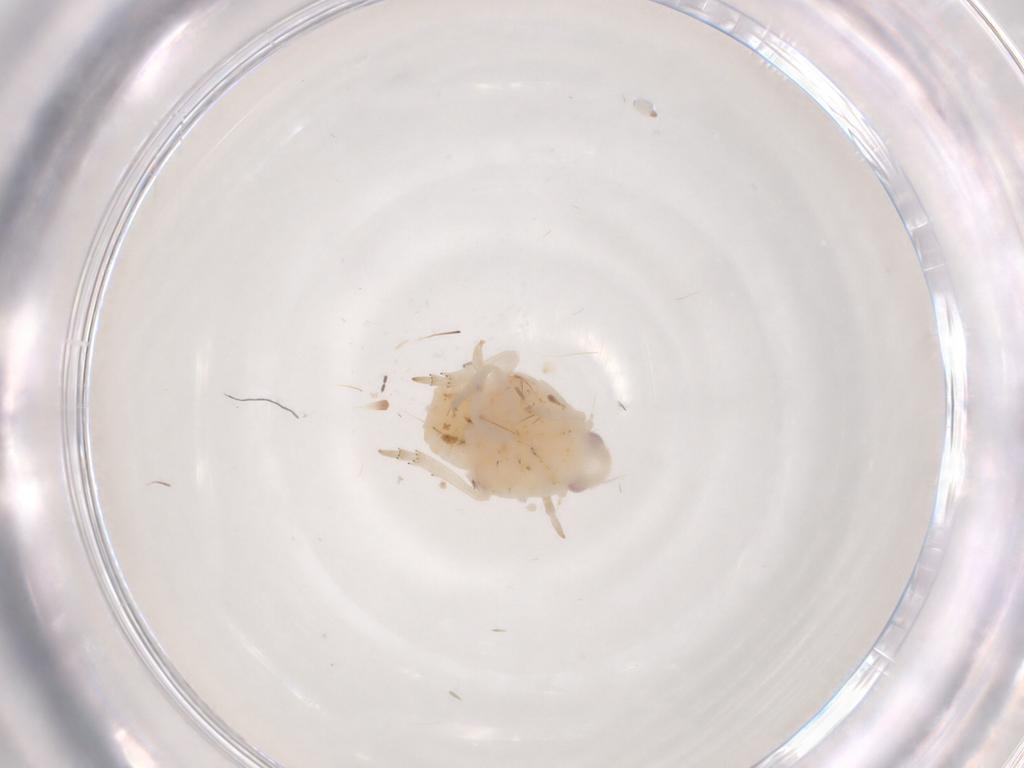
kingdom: Animalia
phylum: Arthropoda
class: Insecta
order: Hemiptera
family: Flatidae
